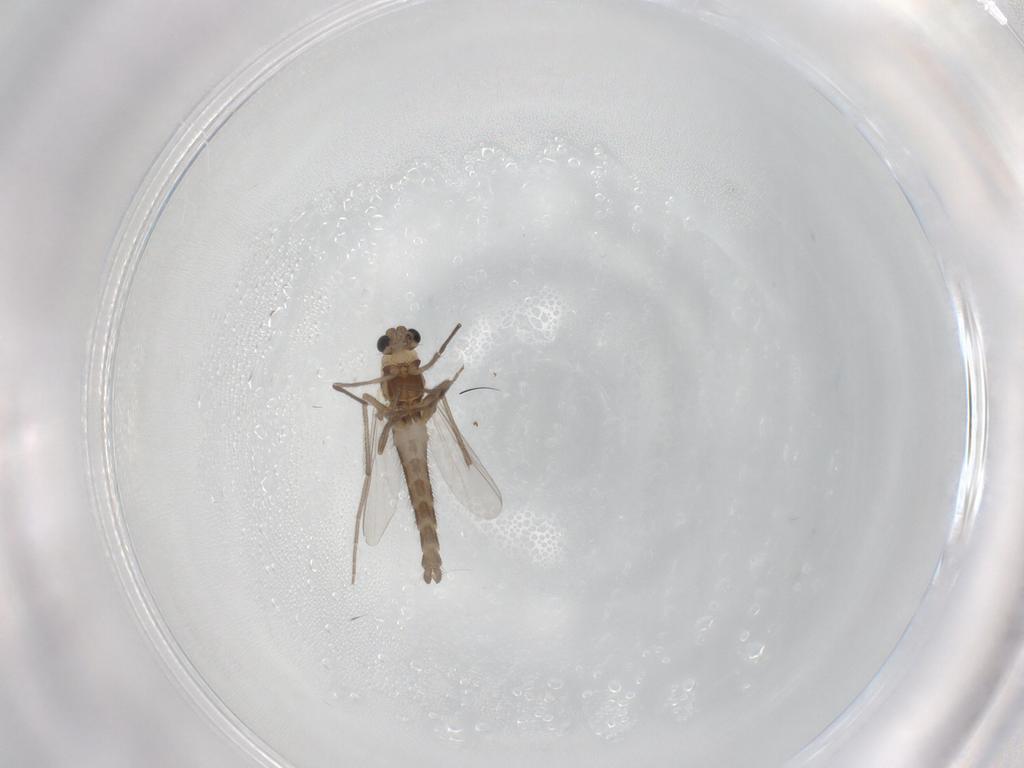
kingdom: Animalia
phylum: Arthropoda
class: Insecta
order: Diptera
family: Chironomidae
